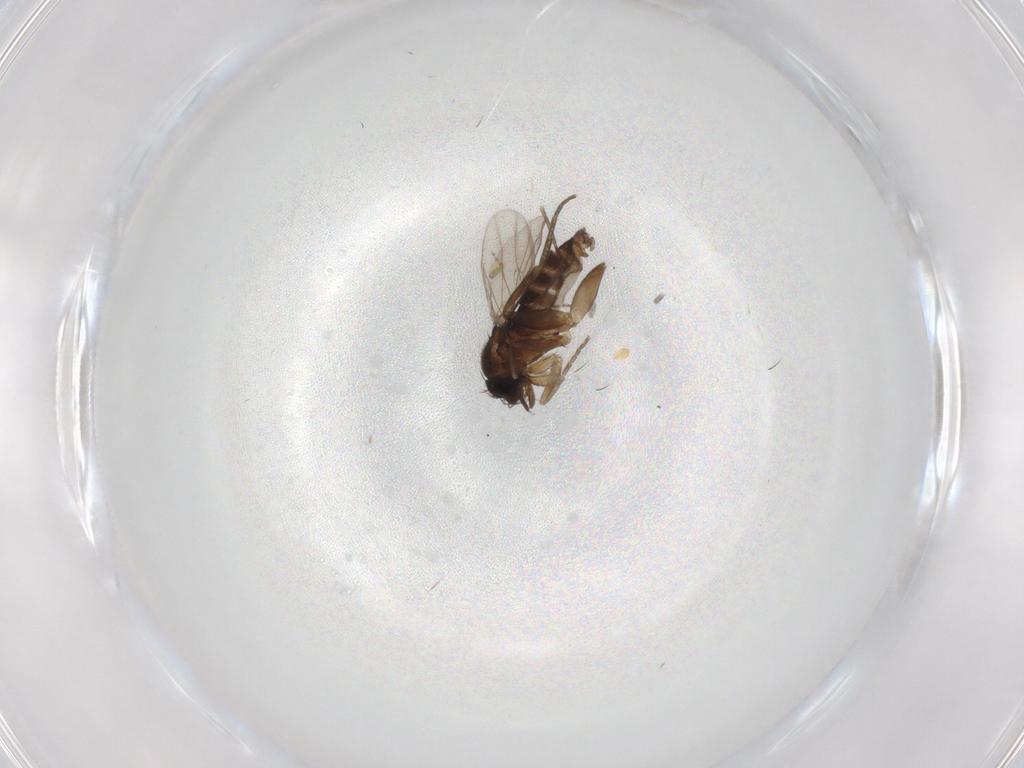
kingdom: Animalia
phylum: Arthropoda
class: Insecta
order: Diptera
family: Ceratopogonidae
